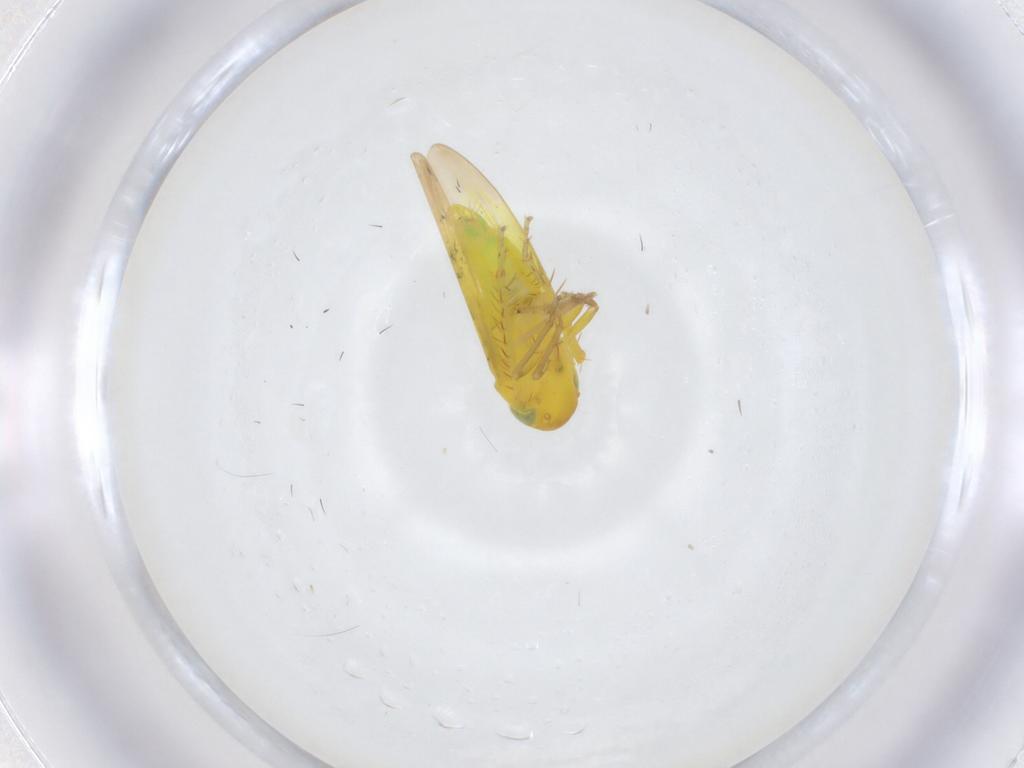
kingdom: Animalia
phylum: Arthropoda
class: Insecta
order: Hemiptera
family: Cicadellidae
